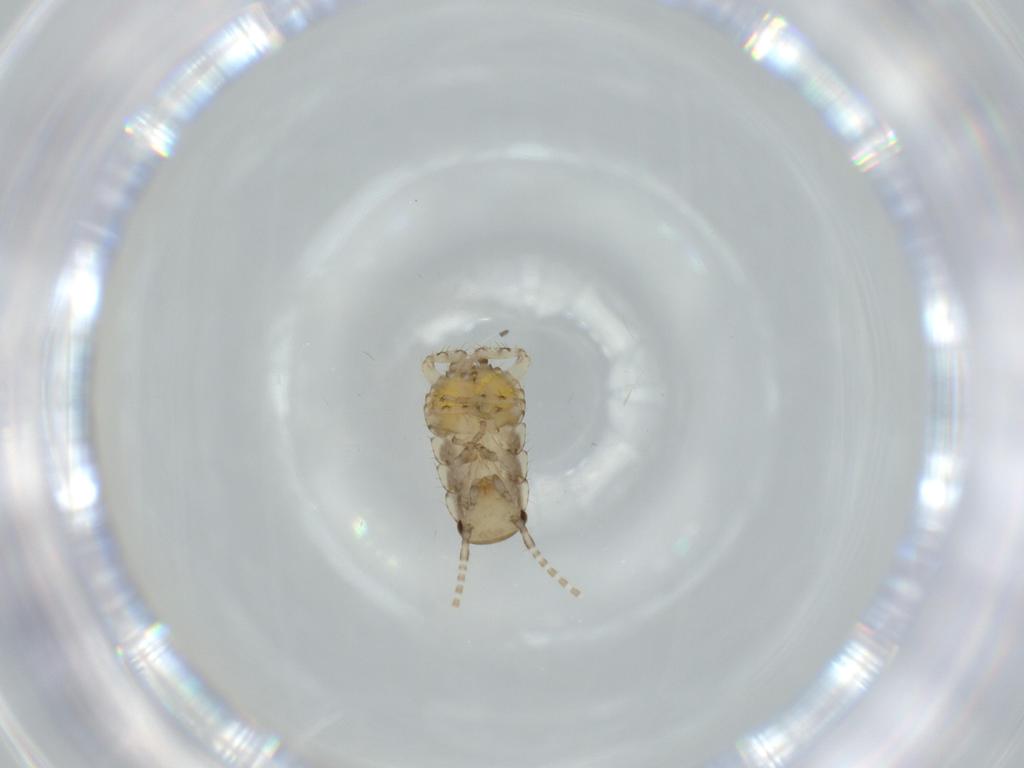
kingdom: Animalia
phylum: Arthropoda
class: Insecta
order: Blattodea
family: Ectobiidae
